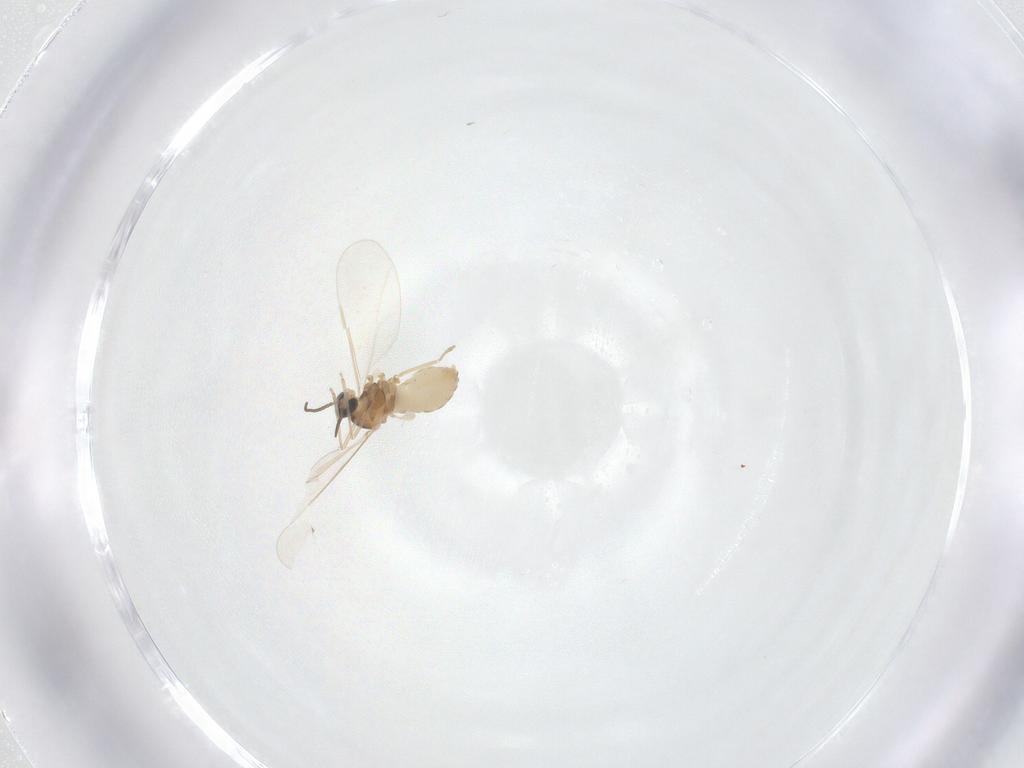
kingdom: Animalia
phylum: Arthropoda
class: Insecta
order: Diptera
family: Cecidomyiidae
